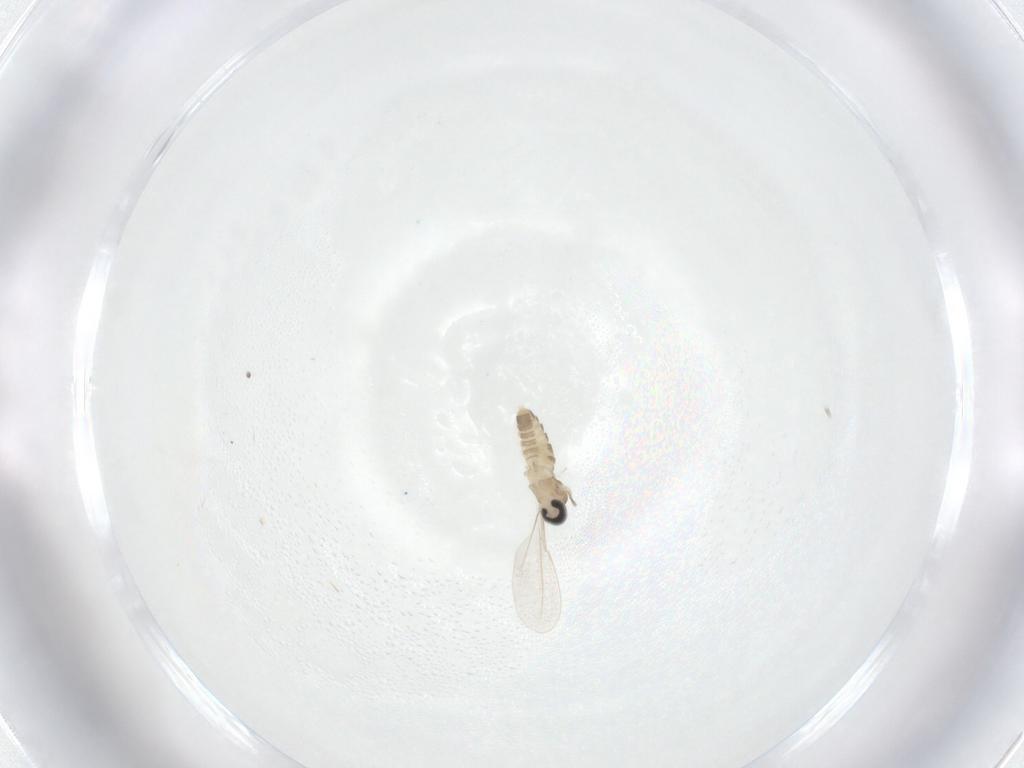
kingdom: Animalia
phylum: Arthropoda
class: Insecta
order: Diptera
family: Cecidomyiidae
